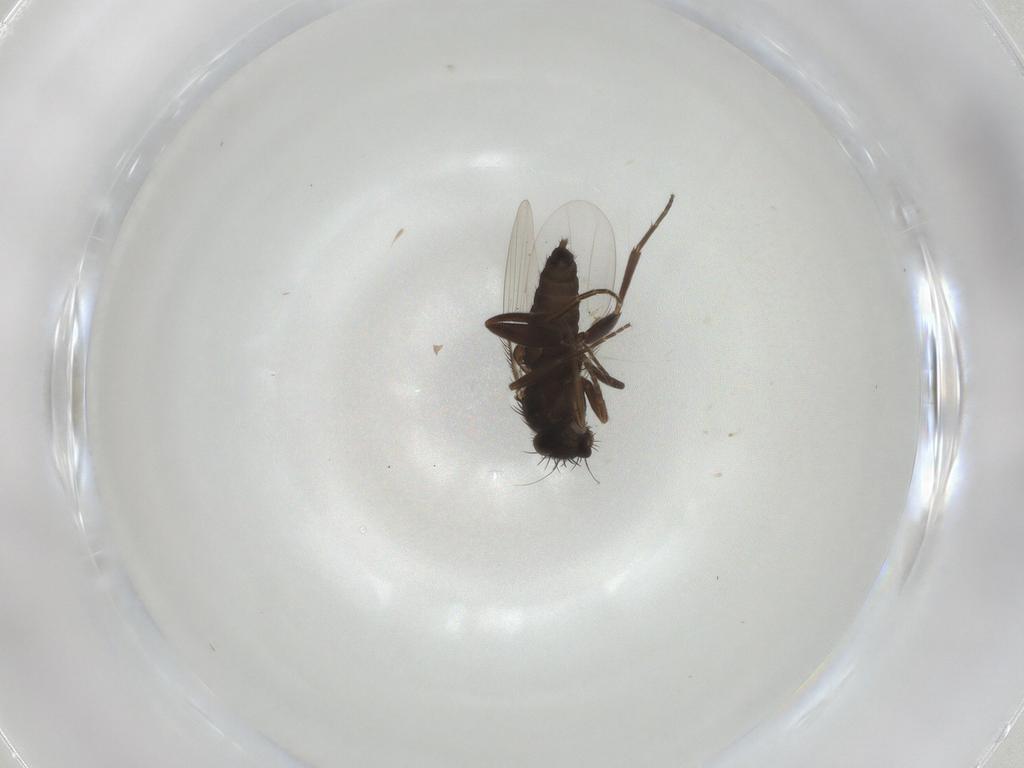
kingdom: Animalia
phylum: Arthropoda
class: Insecta
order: Diptera
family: Phoridae
